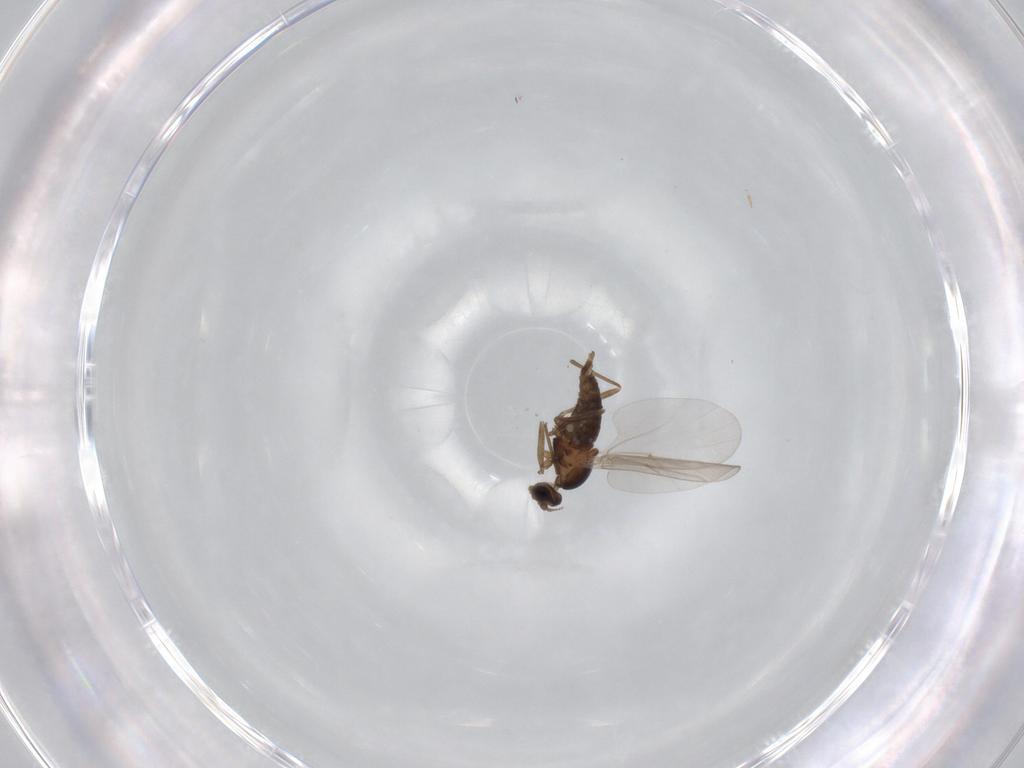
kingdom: Animalia
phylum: Arthropoda
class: Insecta
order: Diptera
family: Cecidomyiidae
